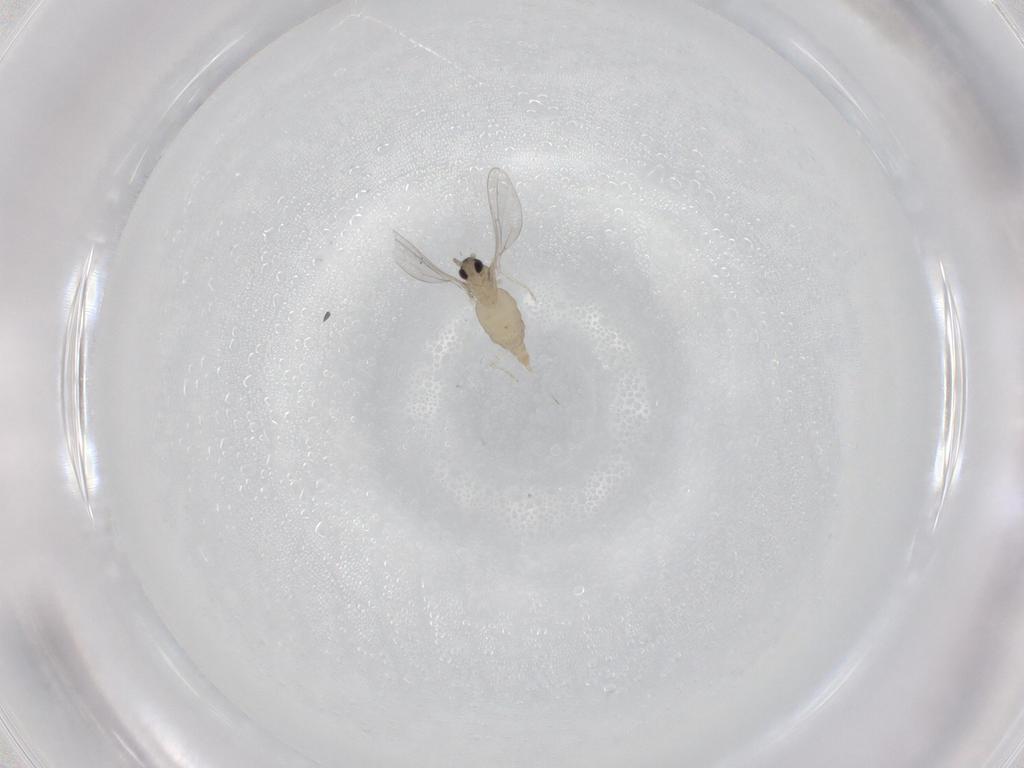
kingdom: Animalia
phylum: Arthropoda
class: Insecta
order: Diptera
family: Cecidomyiidae
